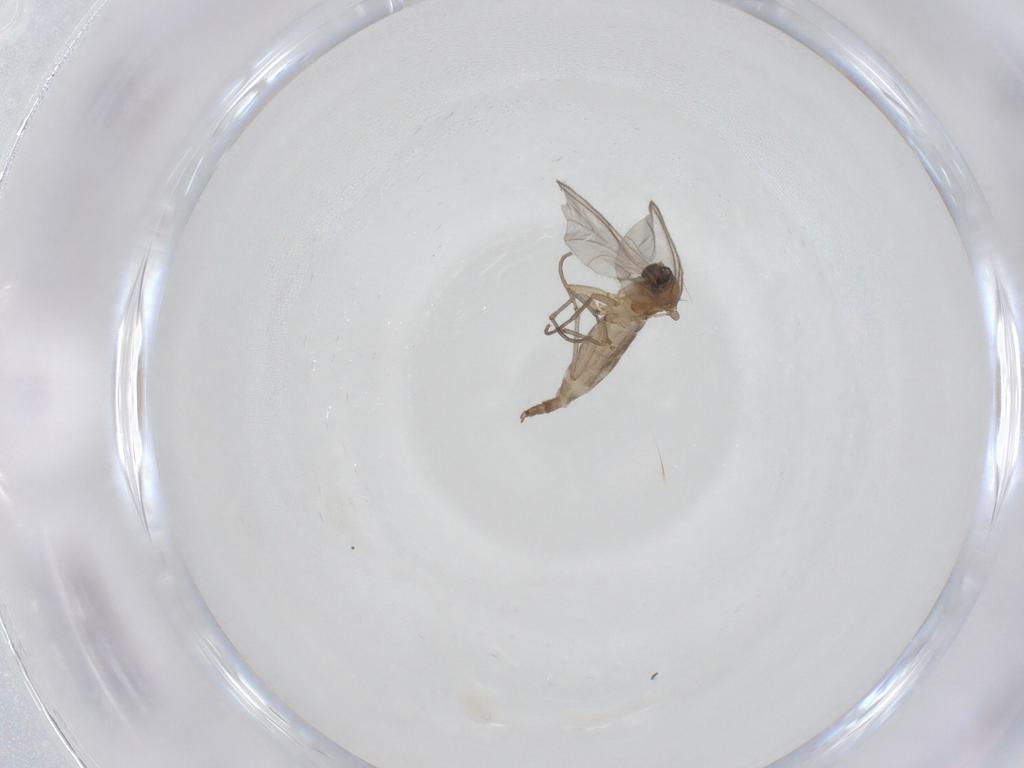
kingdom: Animalia
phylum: Arthropoda
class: Insecta
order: Diptera
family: Sciaridae
